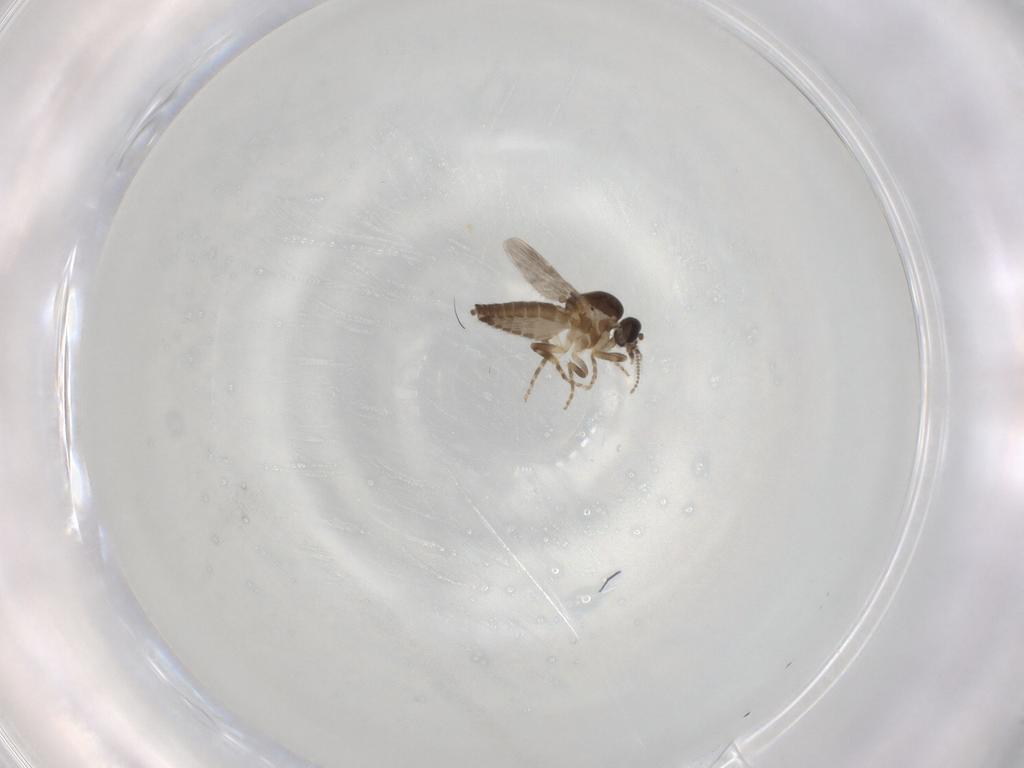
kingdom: Animalia
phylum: Arthropoda
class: Insecta
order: Diptera
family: Ceratopogonidae
